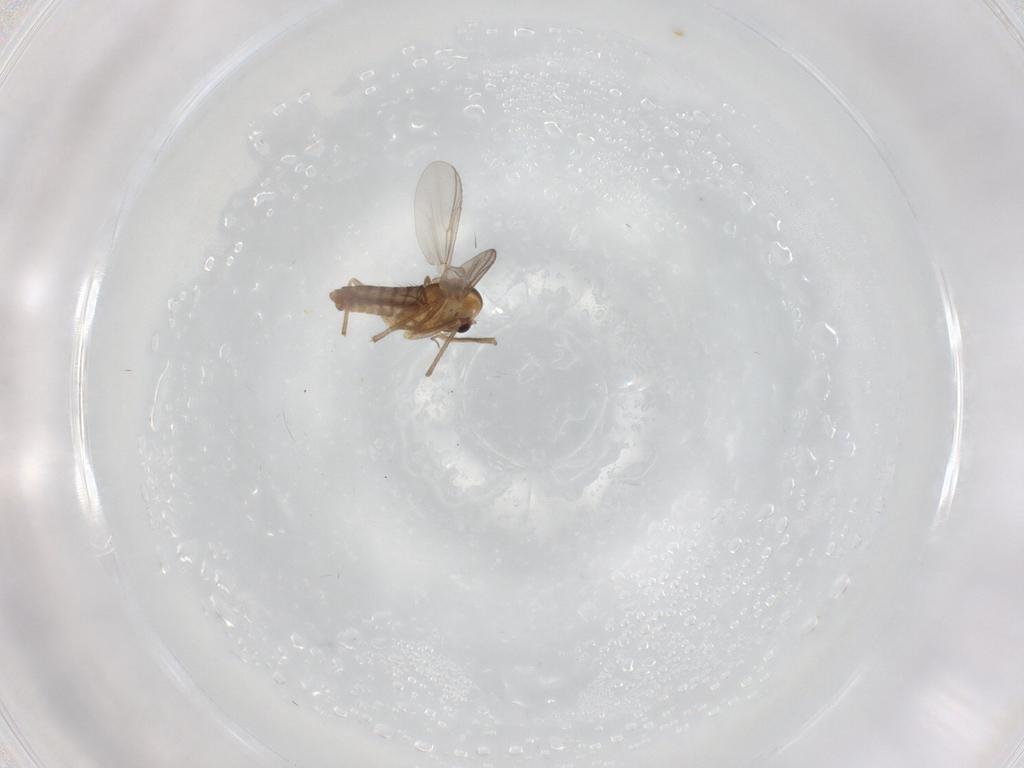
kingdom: Animalia
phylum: Arthropoda
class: Insecta
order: Diptera
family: Chironomidae
